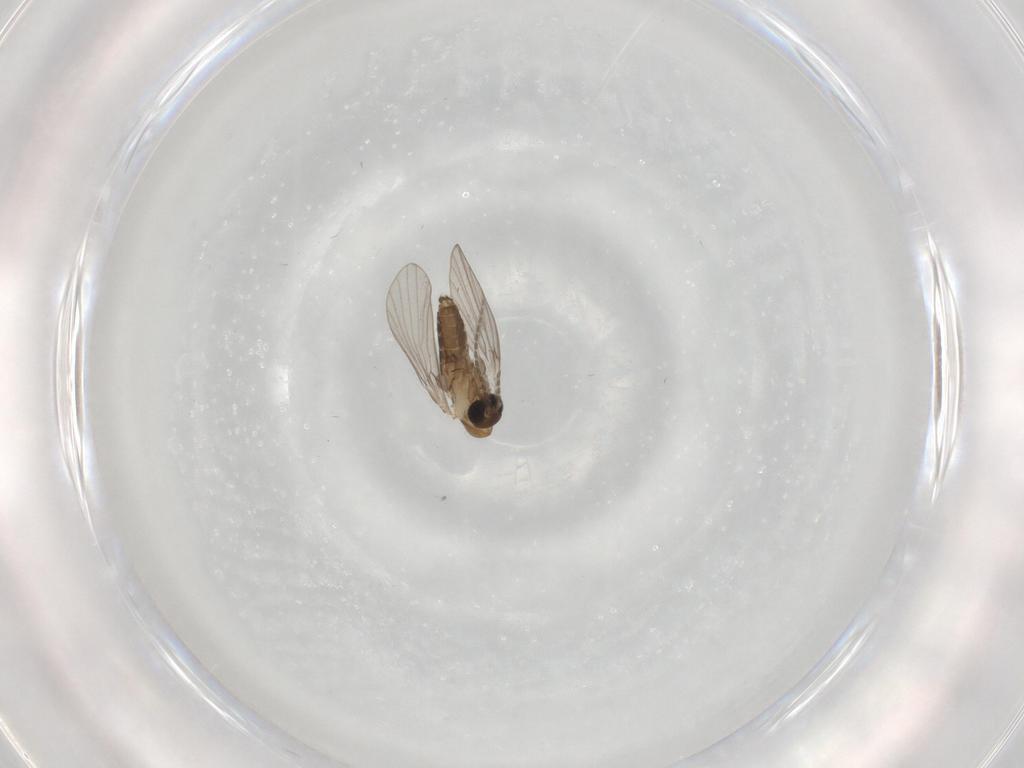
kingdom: Animalia
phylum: Arthropoda
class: Insecta
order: Diptera
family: Psychodidae
